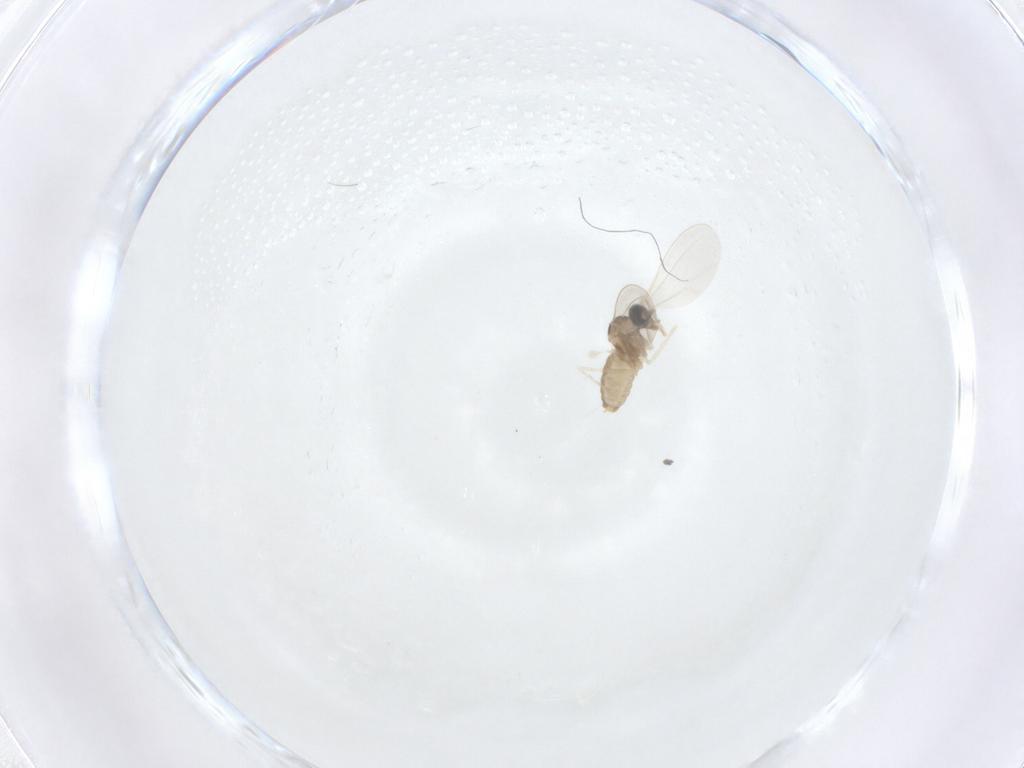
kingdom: Animalia
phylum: Arthropoda
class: Insecta
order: Diptera
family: Cecidomyiidae
